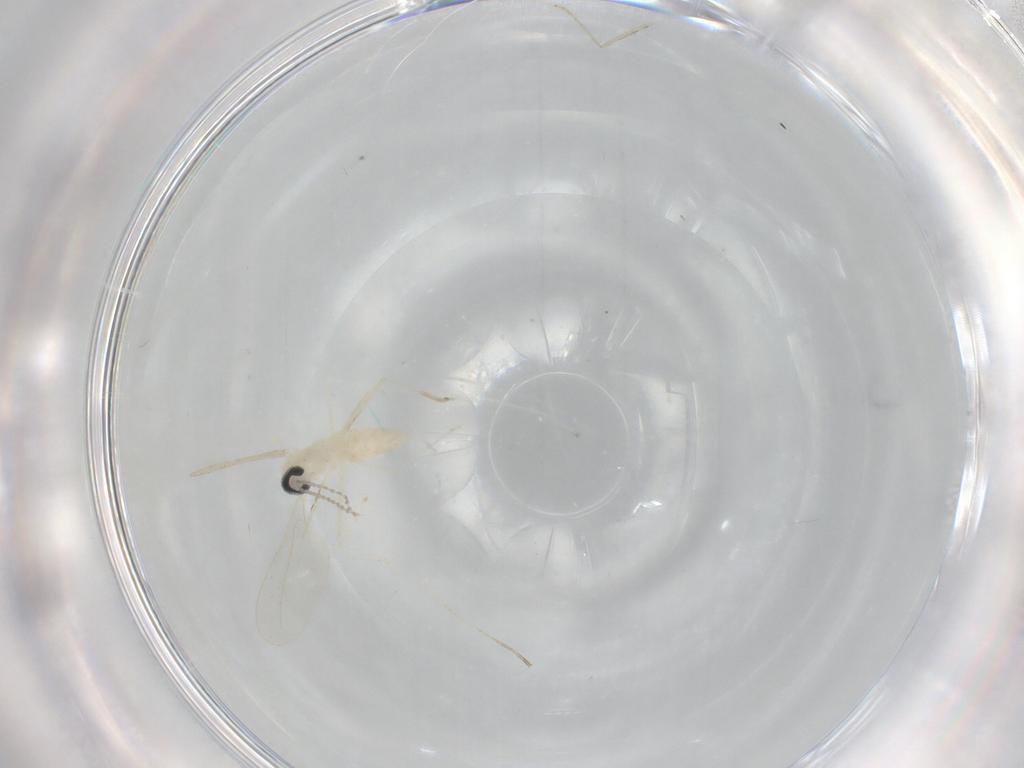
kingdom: Animalia
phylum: Arthropoda
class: Insecta
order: Diptera
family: Cecidomyiidae
